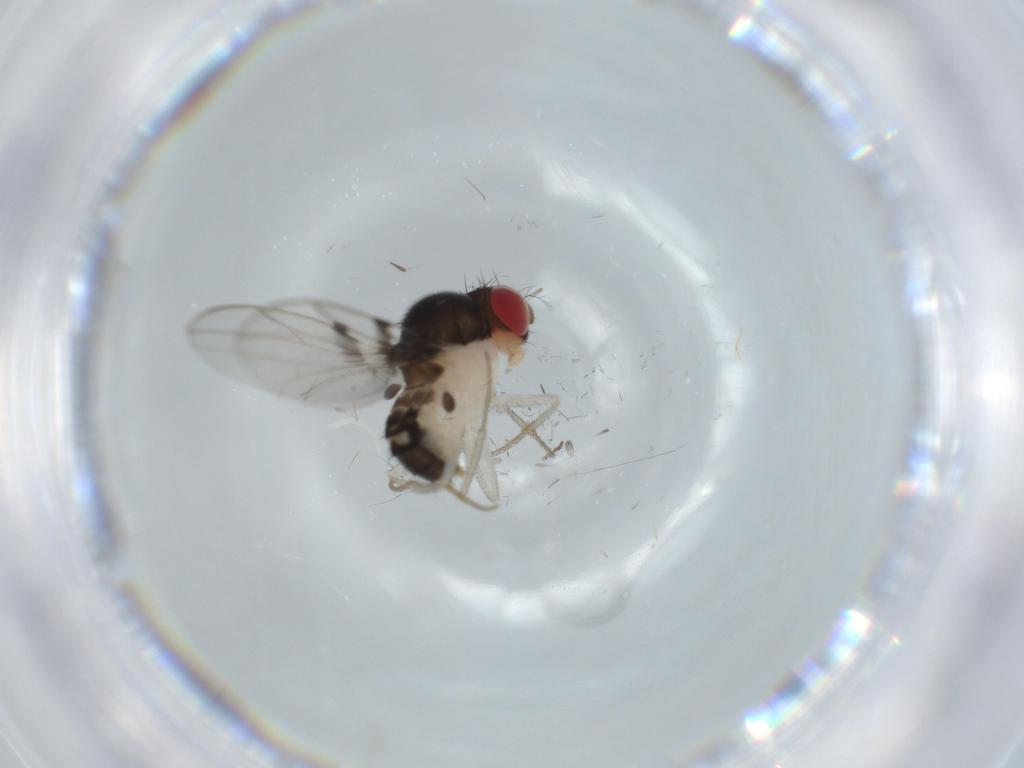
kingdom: Animalia
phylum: Arthropoda
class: Insecta
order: Diptera
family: Drosophilidae
